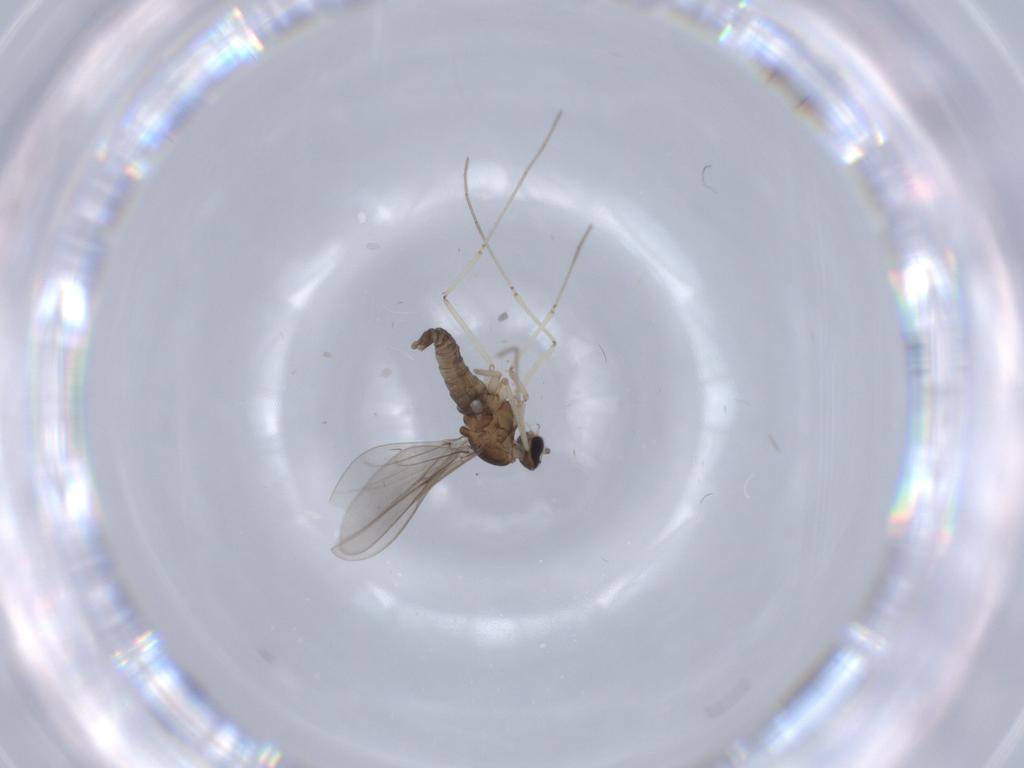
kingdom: Animalia
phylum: Arthropoda
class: Insecta
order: Diptera
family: Cecidomyiidae
